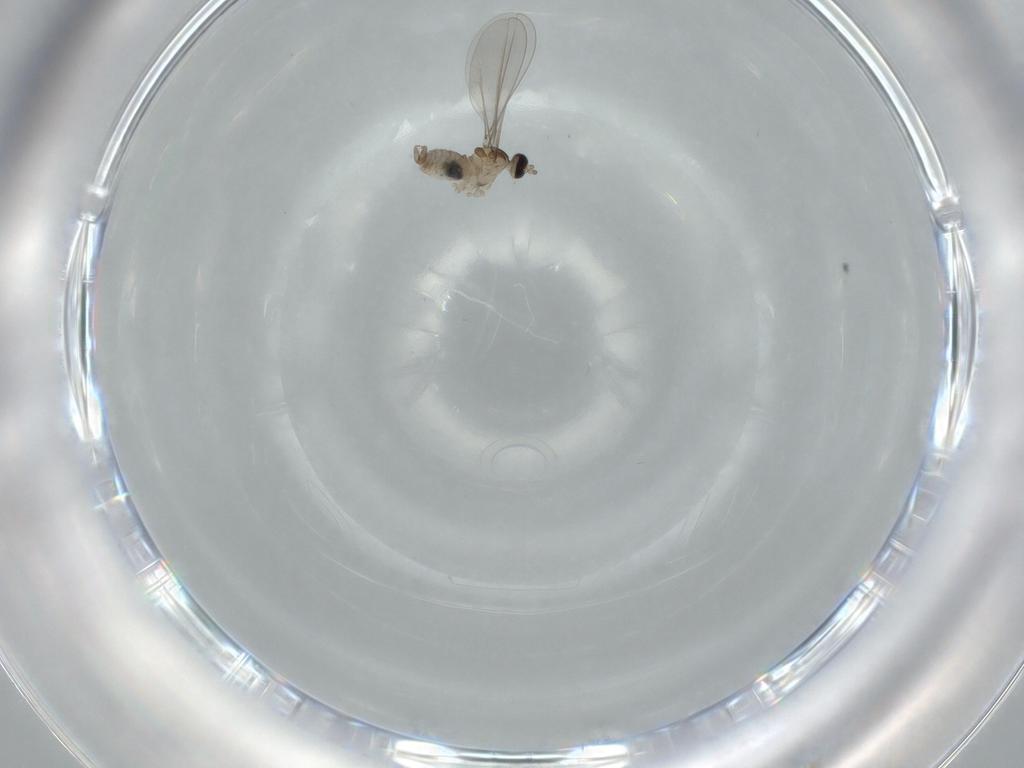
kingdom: Animalia
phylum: Arthropoda
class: Insecta
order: Diptera
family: Cecidomyiidae
